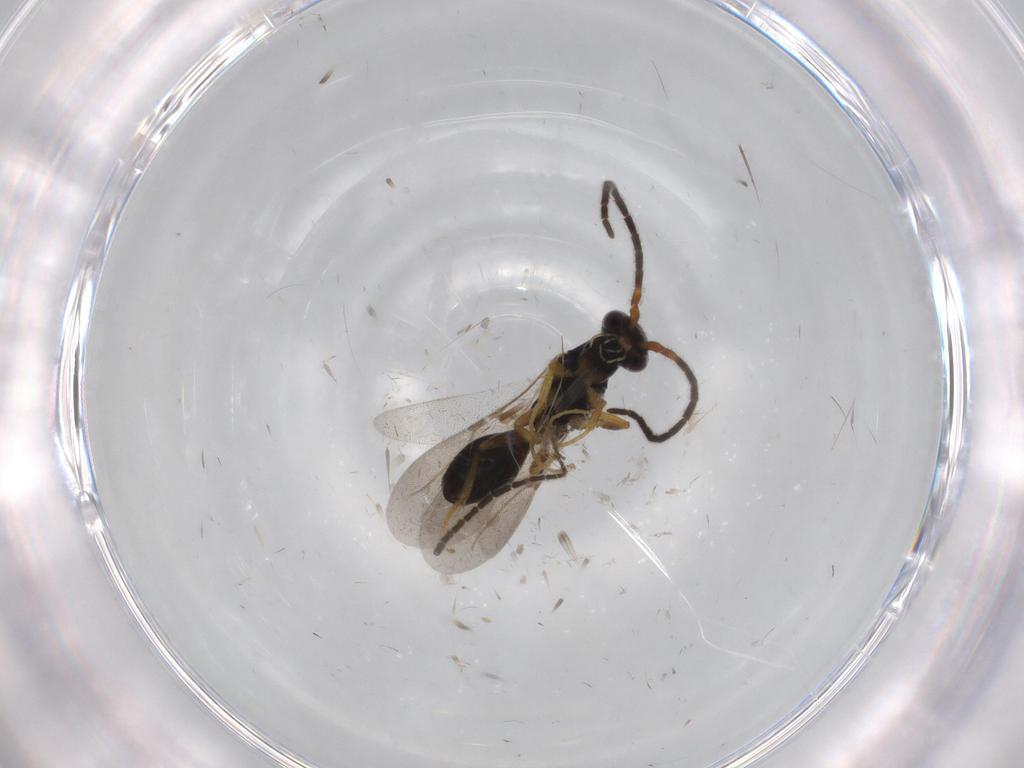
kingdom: Animalia
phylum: Arthropoda
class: Insecta
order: Hymenoptera
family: Bethylidae
